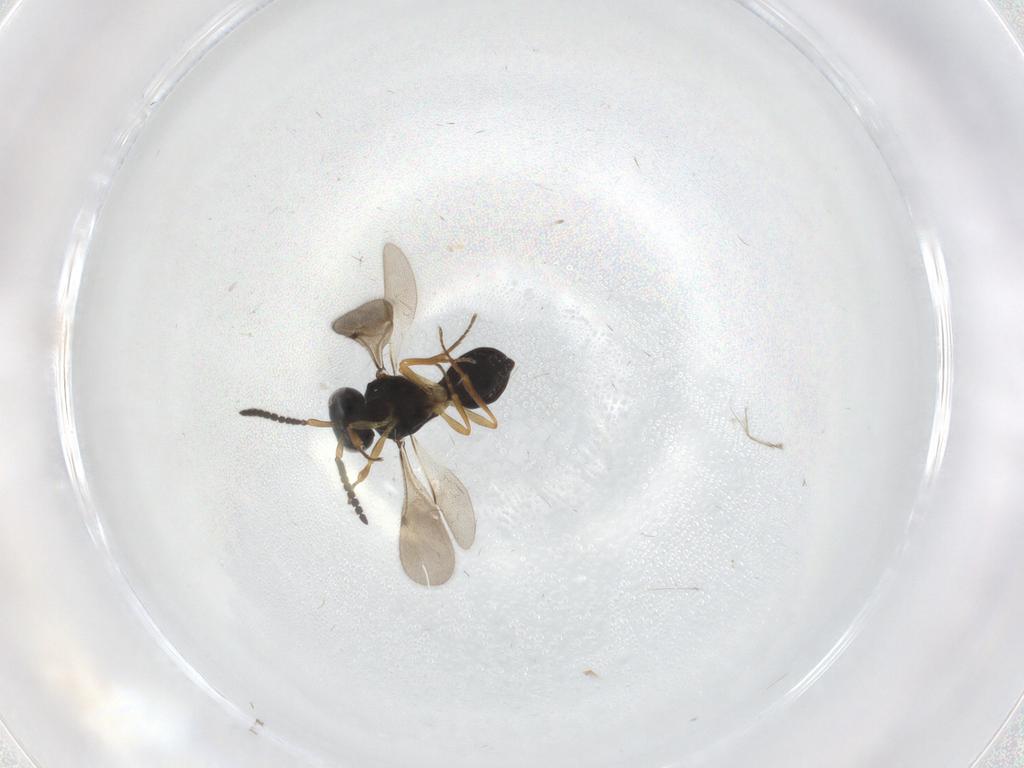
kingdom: Animalia
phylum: Arthropoda
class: Insecta
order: Hymenoptera
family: Scelionidae
